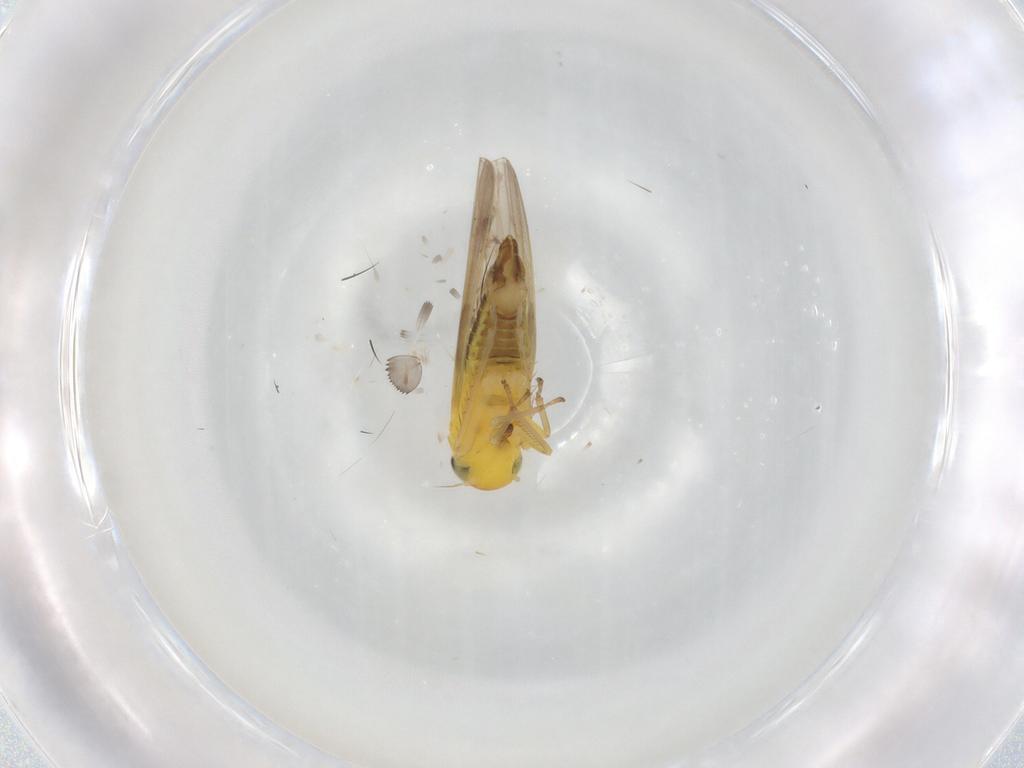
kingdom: Animalia
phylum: Arthropoda
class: Insecta
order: Hemiptera
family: Cicadellidae
